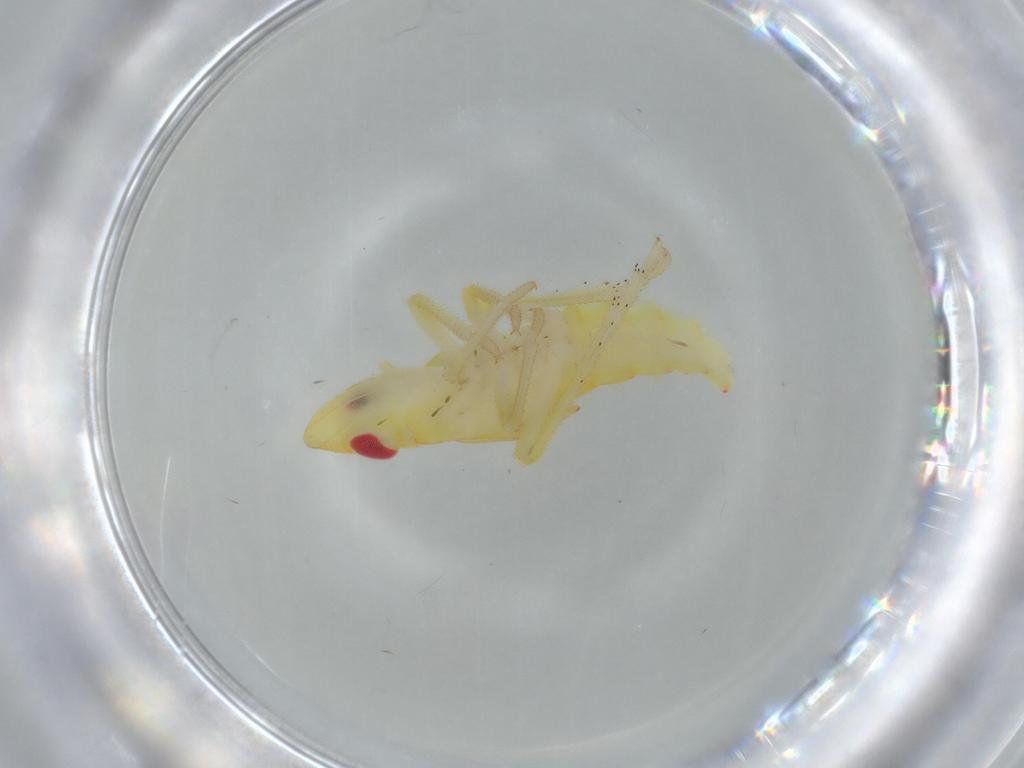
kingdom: Animalia
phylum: Arthropoda
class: Insecta
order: Hemiptera
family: Tropiduchidae
